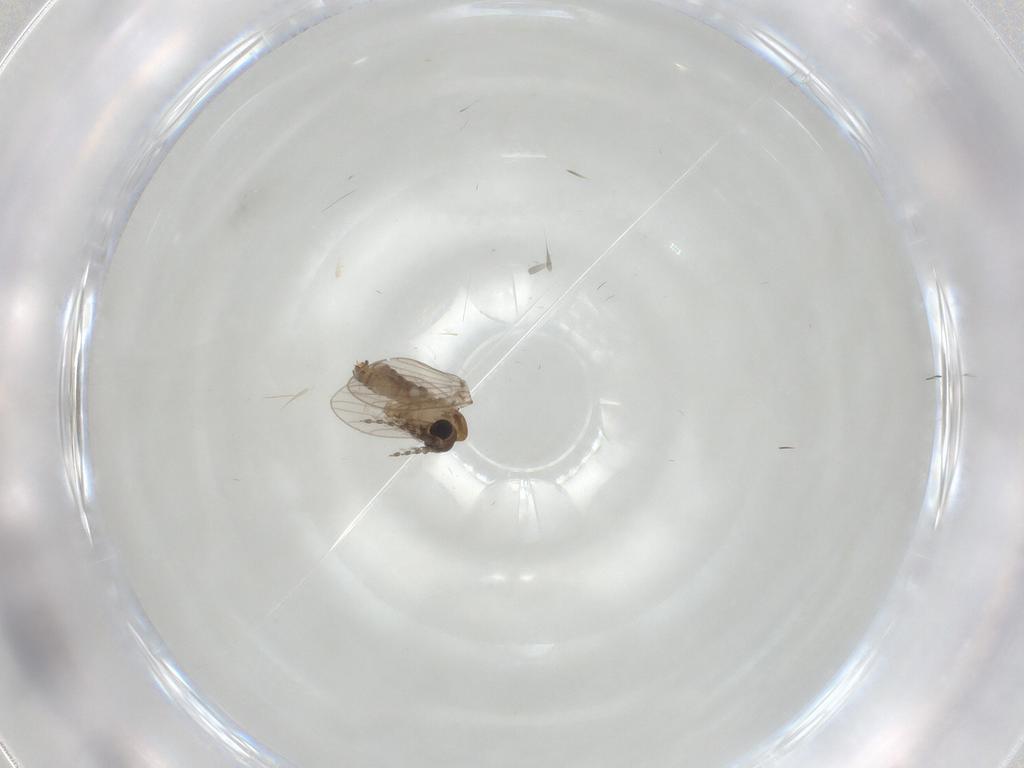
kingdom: Animalia
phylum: Arthropoda
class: Insecta
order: Diptera
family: Psychodidae
